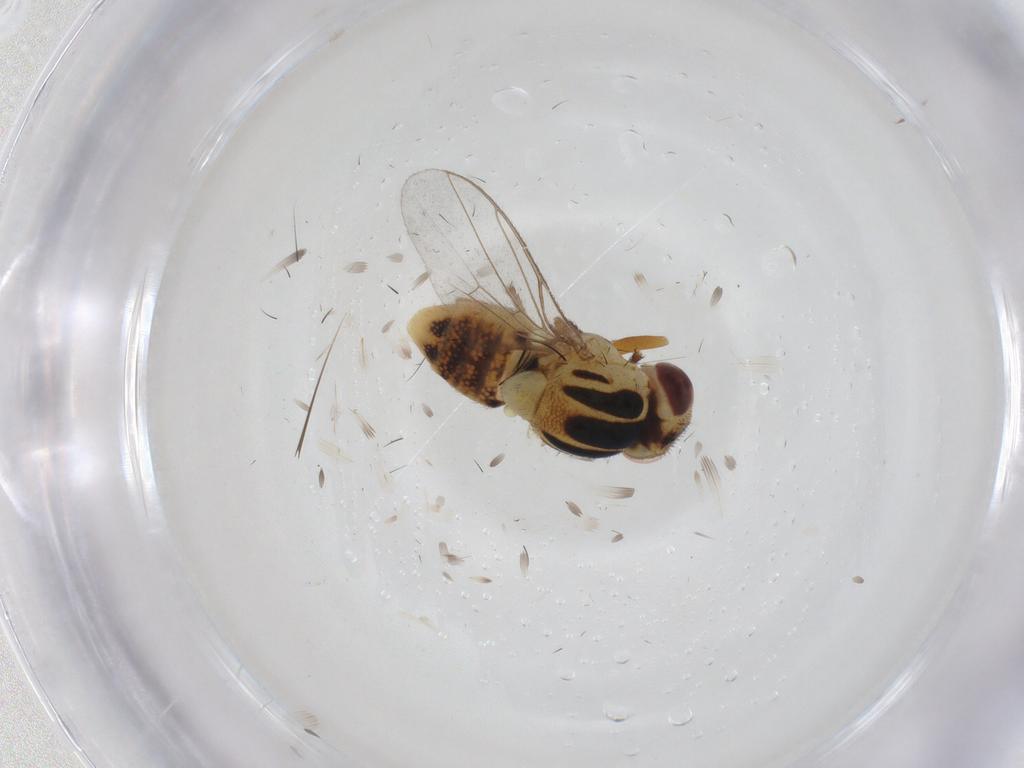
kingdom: Animalia
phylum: Arthropoda
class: Insecta
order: Diptera
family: Chloropidae
